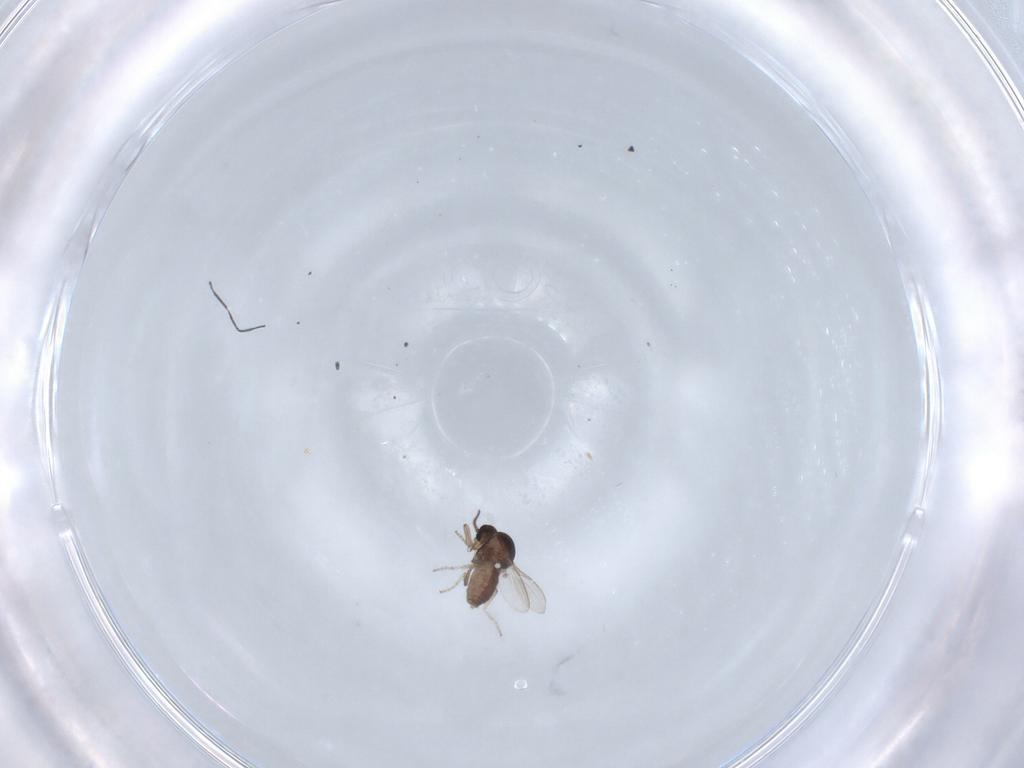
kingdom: Animalia
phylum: Arthropoda
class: Insecta
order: Diptera
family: Ceratopogonidae
